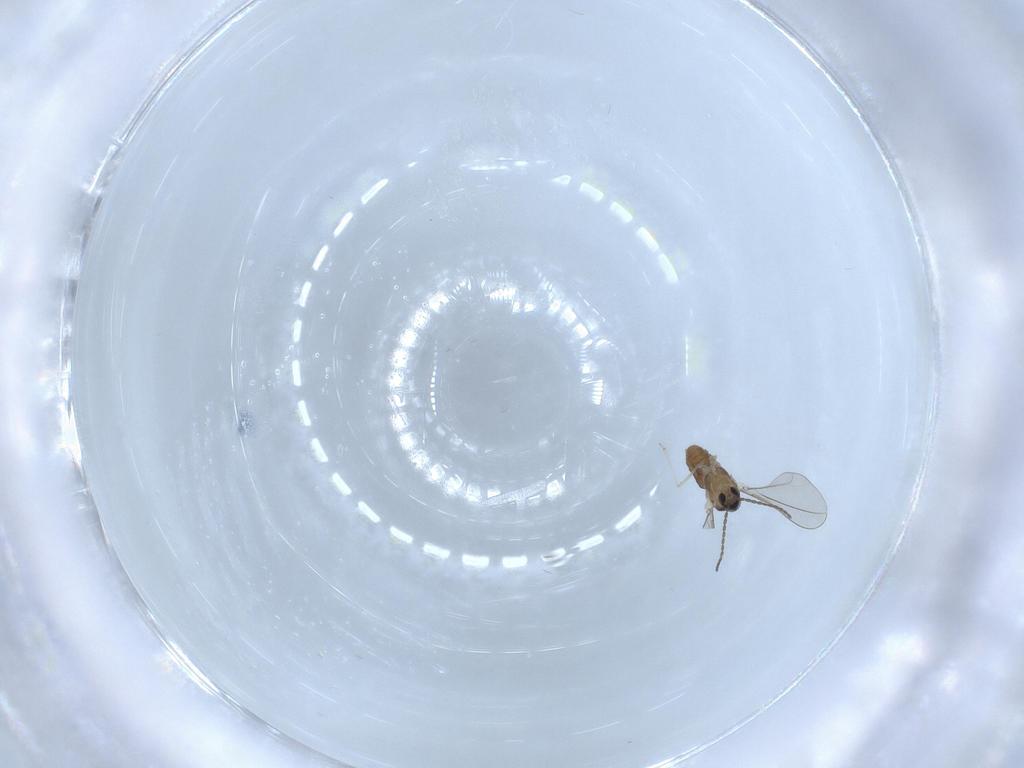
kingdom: Animalia
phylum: Arthropoda
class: Insecta
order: Diptera
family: Cecidomyiidae
